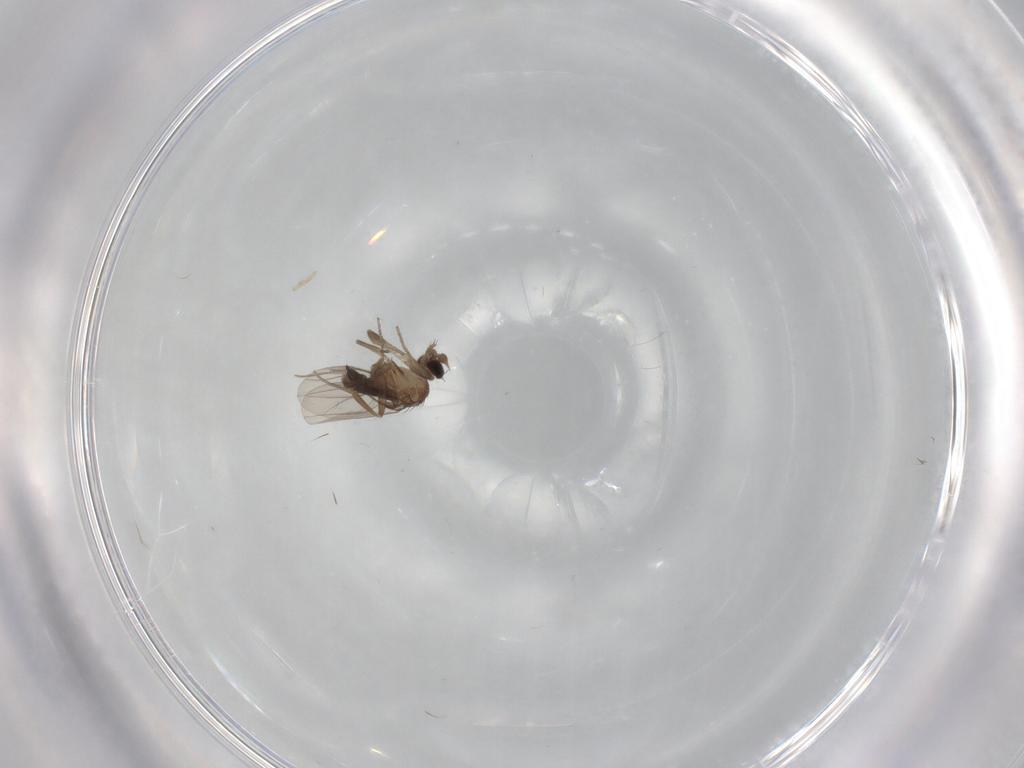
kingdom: Animalia
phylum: Arthropoda
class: Insecta
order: Diptera
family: Phoridae
